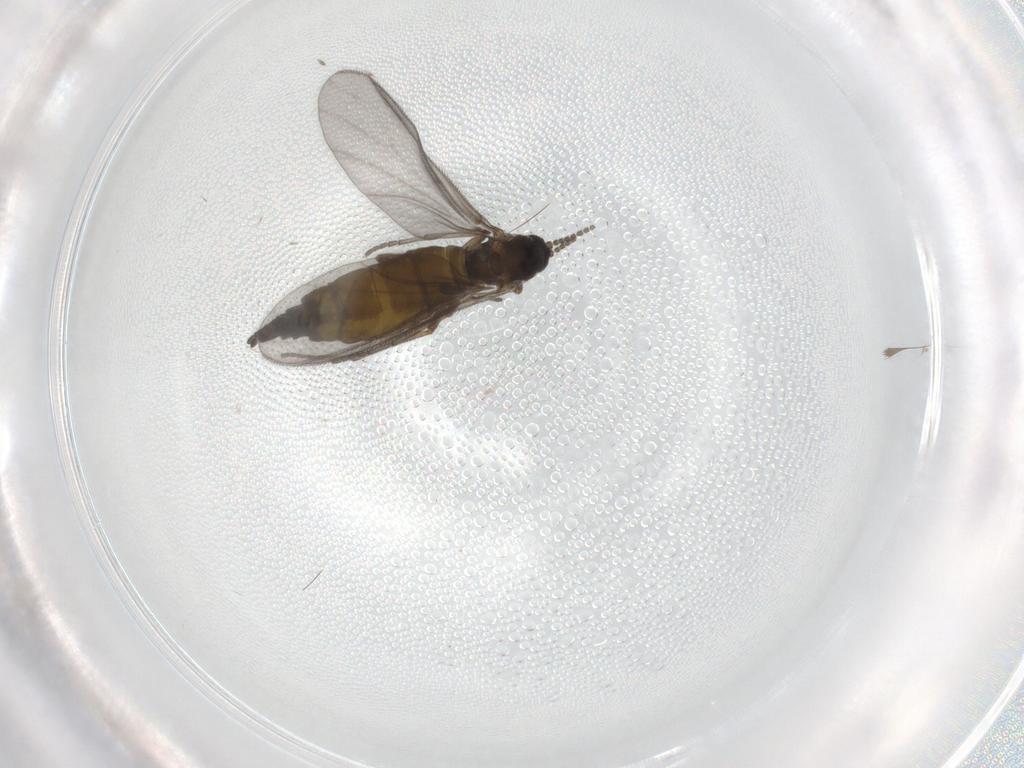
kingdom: Animalia
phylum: Arthropoda
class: Insecta
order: Diptera
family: Sciaridae
